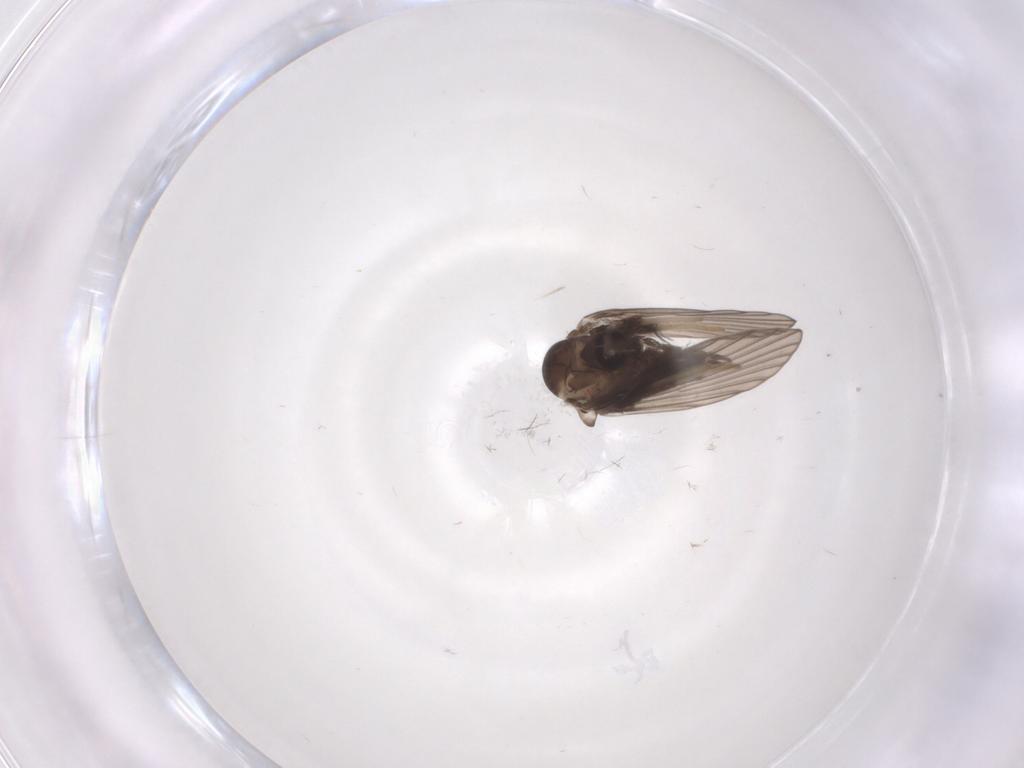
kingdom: Animalia
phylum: Arthropoda
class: Insecta
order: Diptera
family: Psychodidae
